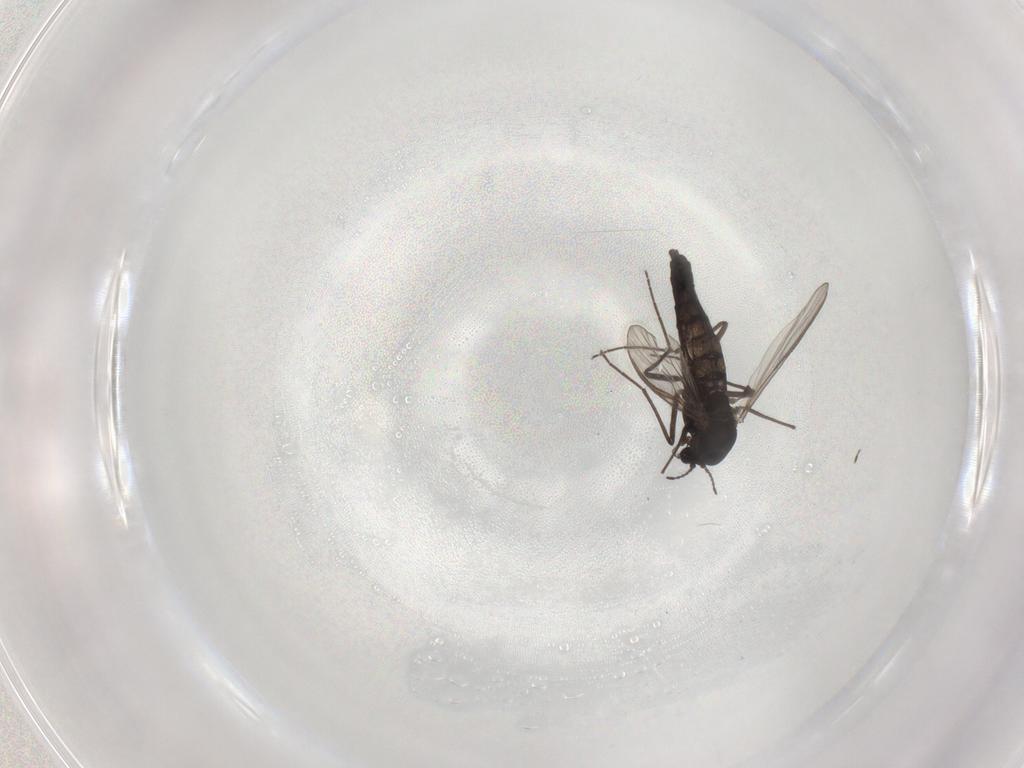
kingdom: Animalia
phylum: Arthropoda
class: Insecta
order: Diptera
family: Chironomidae
